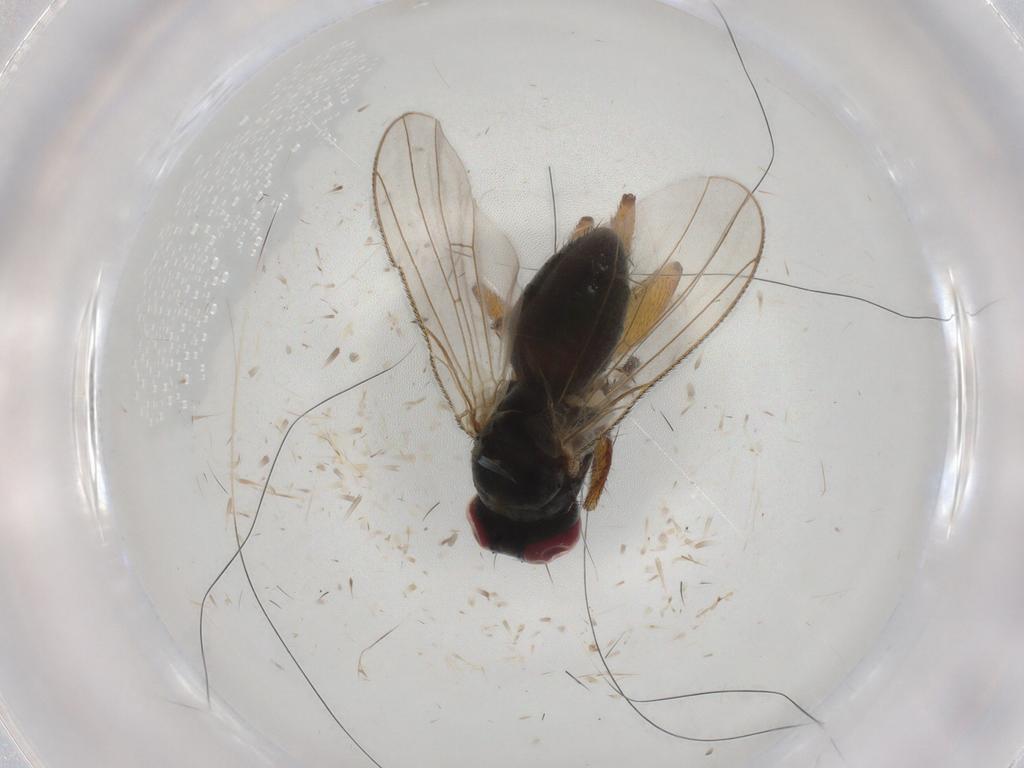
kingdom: Animalia
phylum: Arthropoda
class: Insecta
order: Diptera
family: Muscidae
